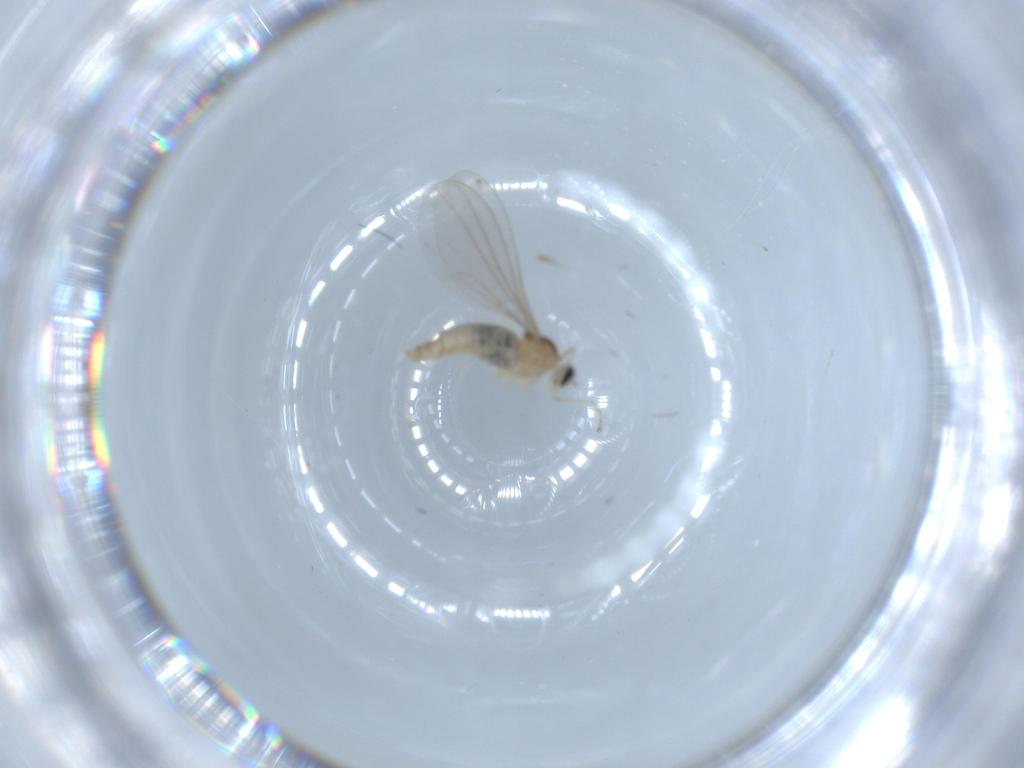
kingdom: Animalia
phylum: Arthropoda
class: Insecta
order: Diptera
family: Cecidomyiidae
